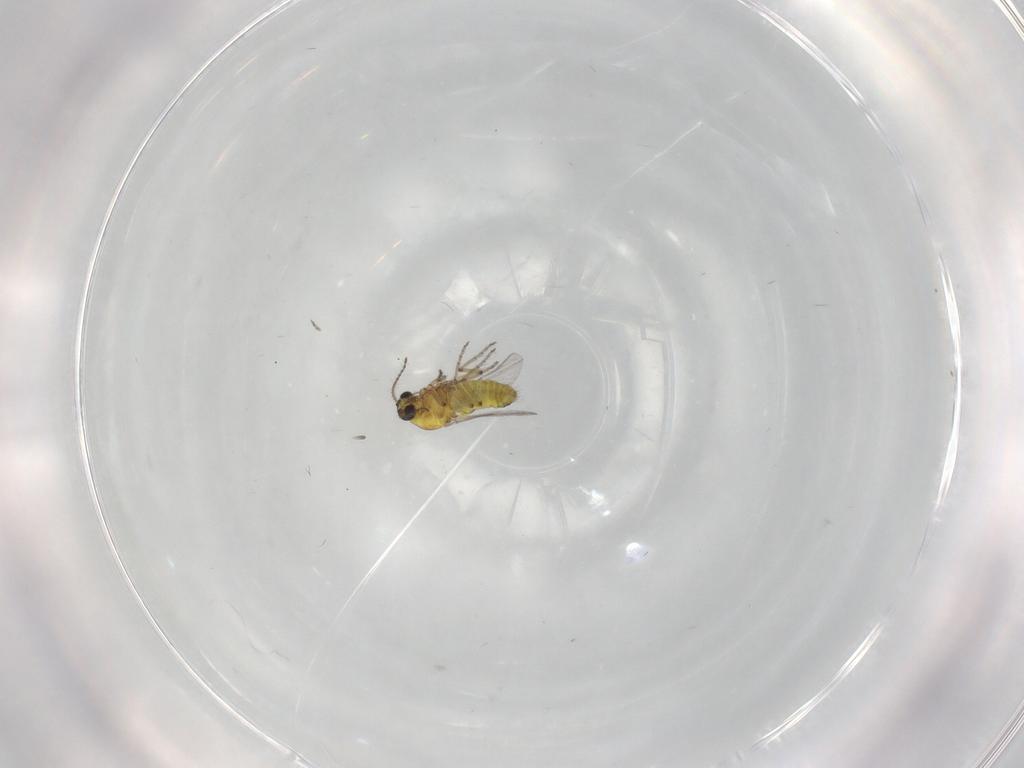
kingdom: Animalia
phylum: Arthropoda
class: Insecta
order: Diptera
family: Ceratopogonidae
